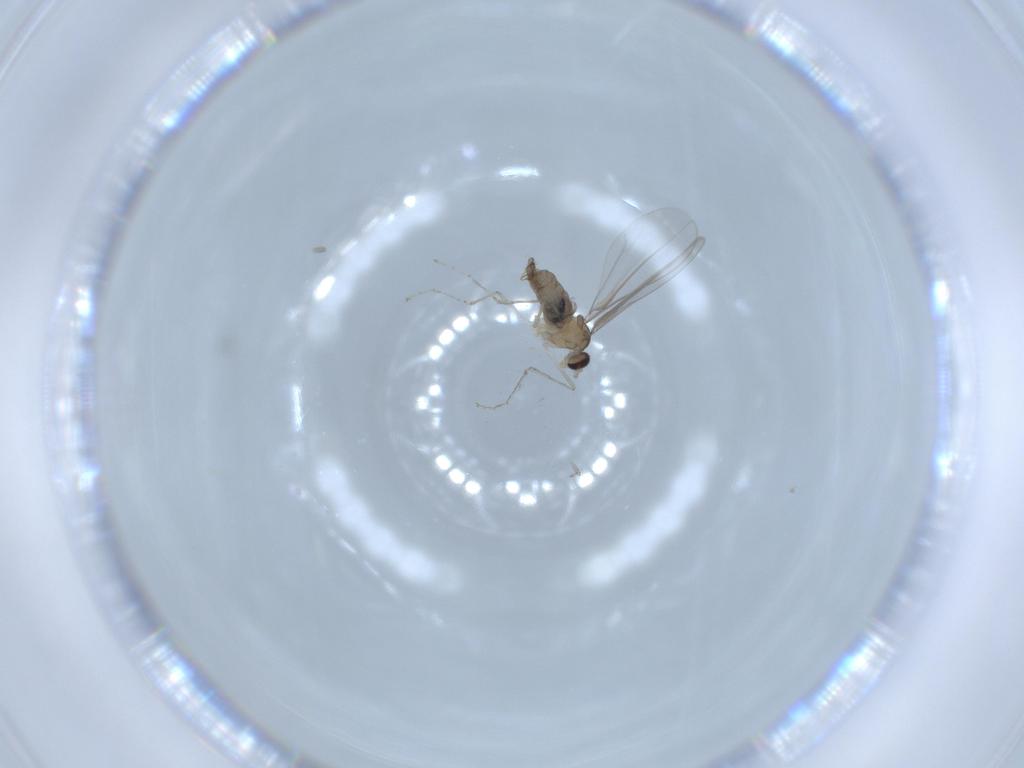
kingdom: Animalia
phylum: Arthropoda
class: Insecta
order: Diptera
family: Cecidomyiidae
